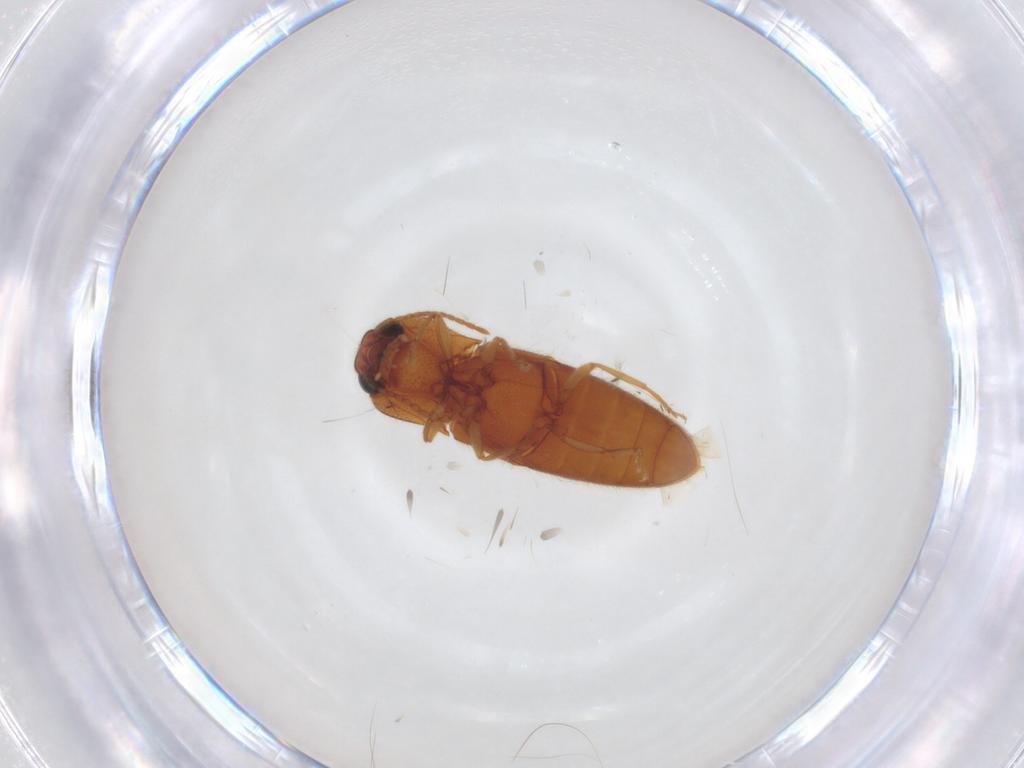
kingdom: Animalia
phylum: Arthropoda
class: Insecta
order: Coleoptera
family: Elateridae
